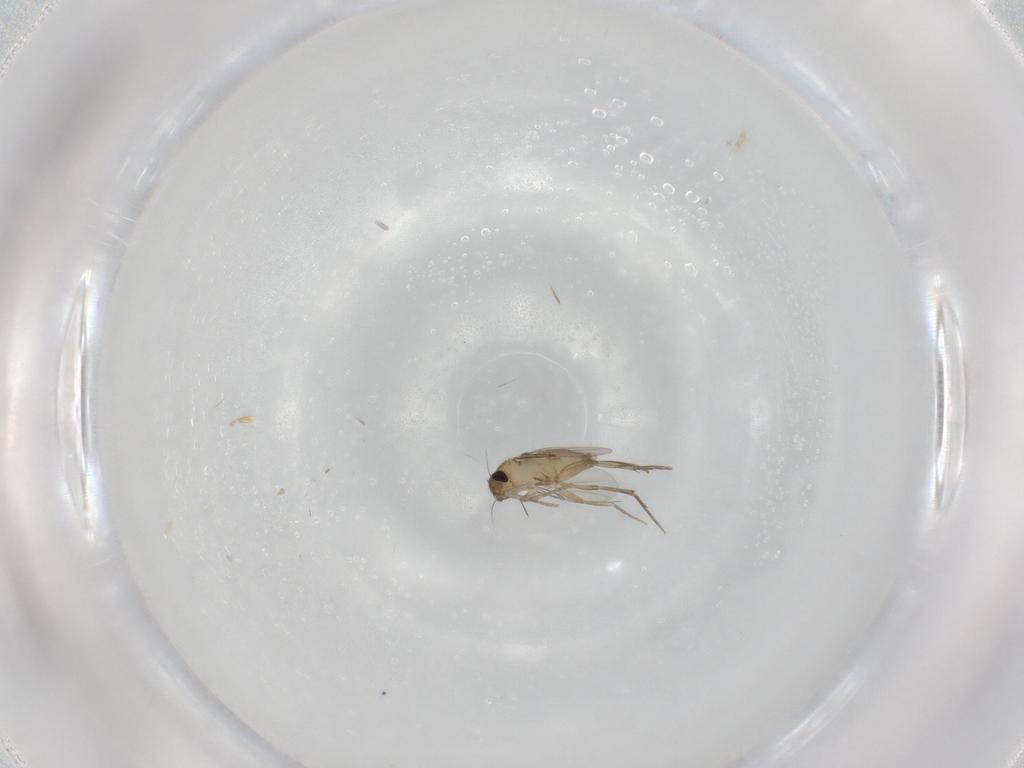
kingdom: Animalia
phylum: Arthropoda
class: Insecta
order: Diptera
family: Phoridae
